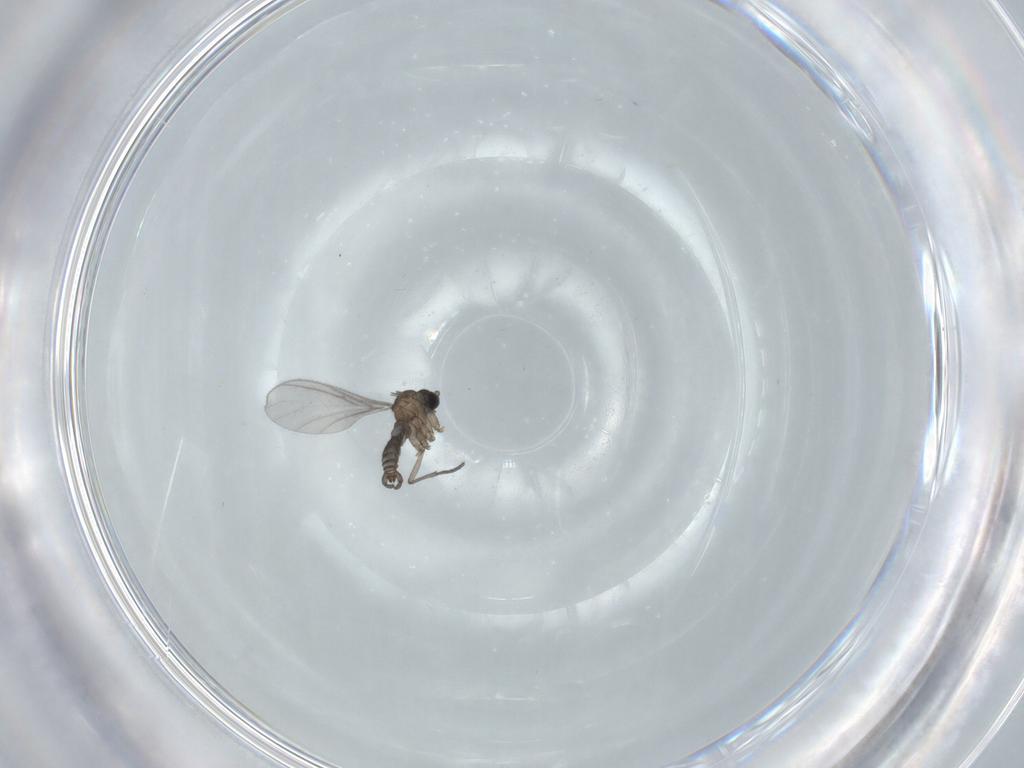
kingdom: Animalia
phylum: Arthropoda
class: Insecta
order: Diptera
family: Sciaridae
